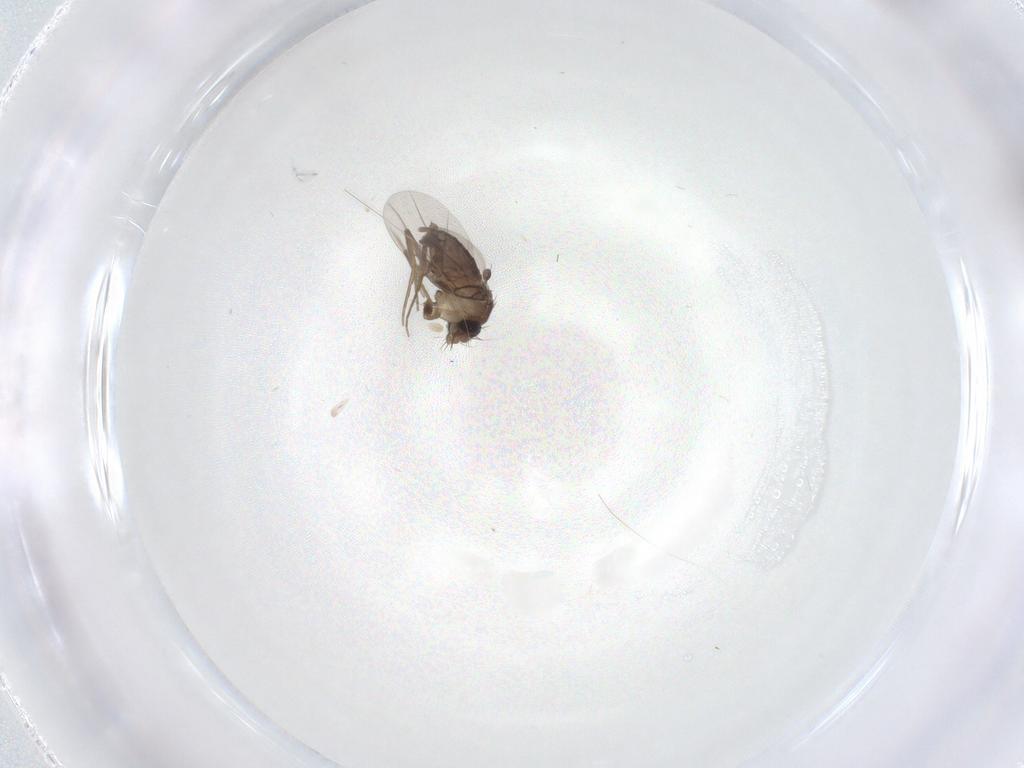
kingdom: Animalia
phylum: Arthropoda
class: Insecta
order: Diptera
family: Phoridae
